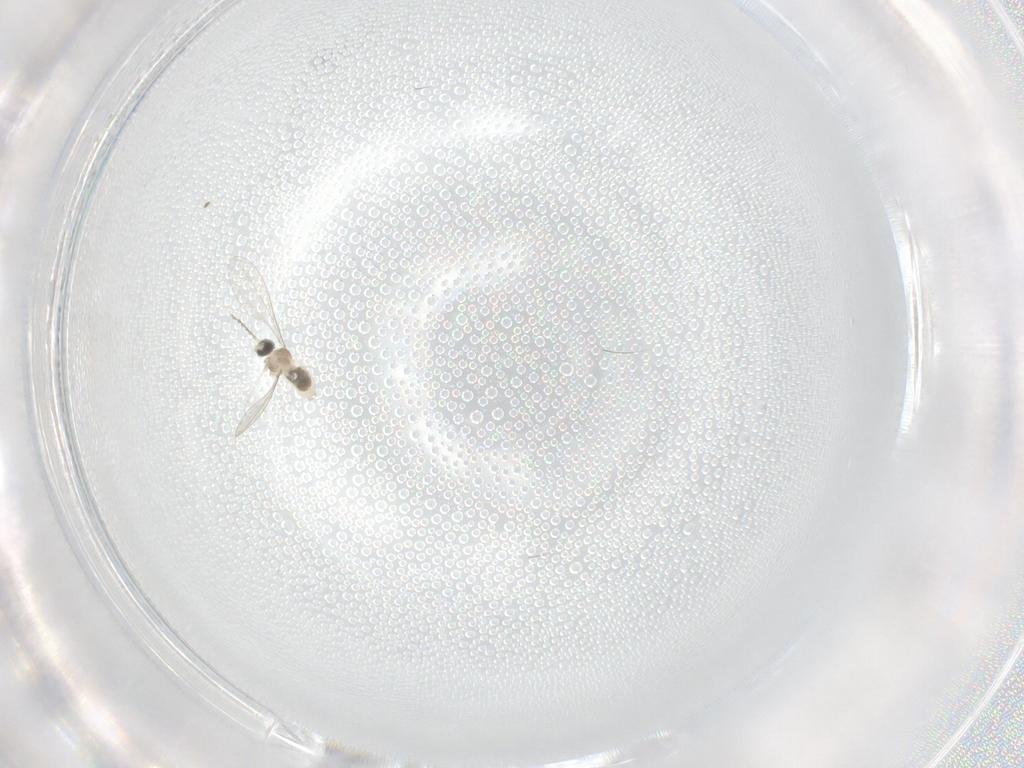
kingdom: Animalia
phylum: Arthropoda
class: Insecta
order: Diptera
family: Cecidomyiidae
